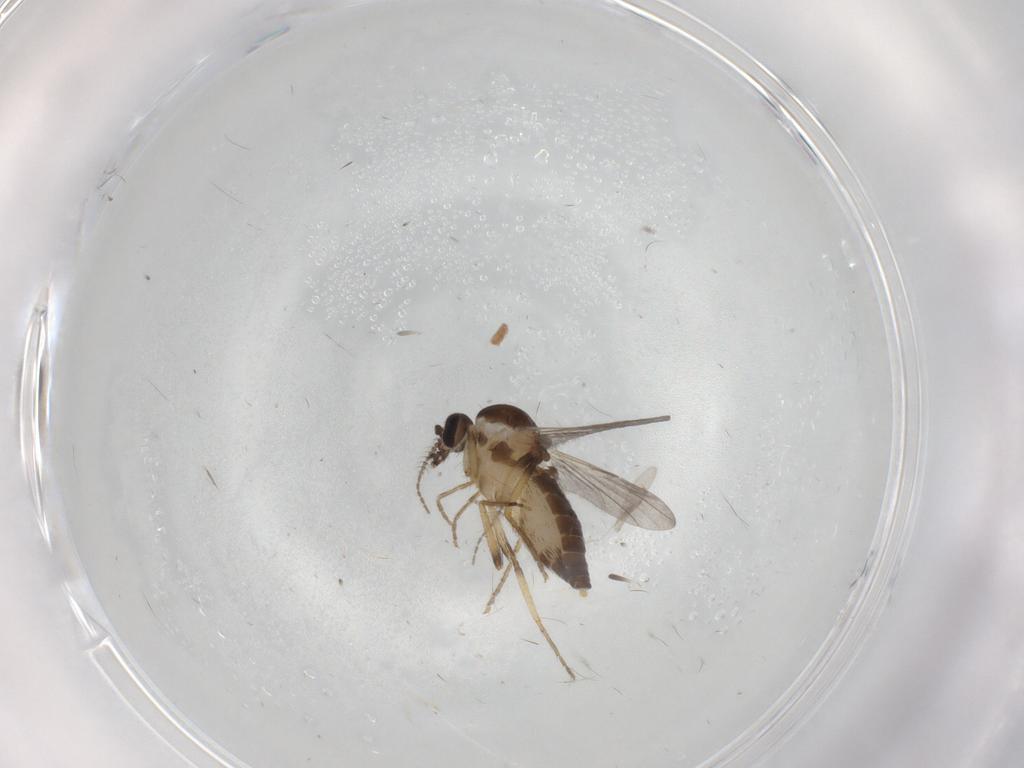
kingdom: Animalia
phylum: Arthropoda
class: Insecta
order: Diptera
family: Ceratopogonidae
